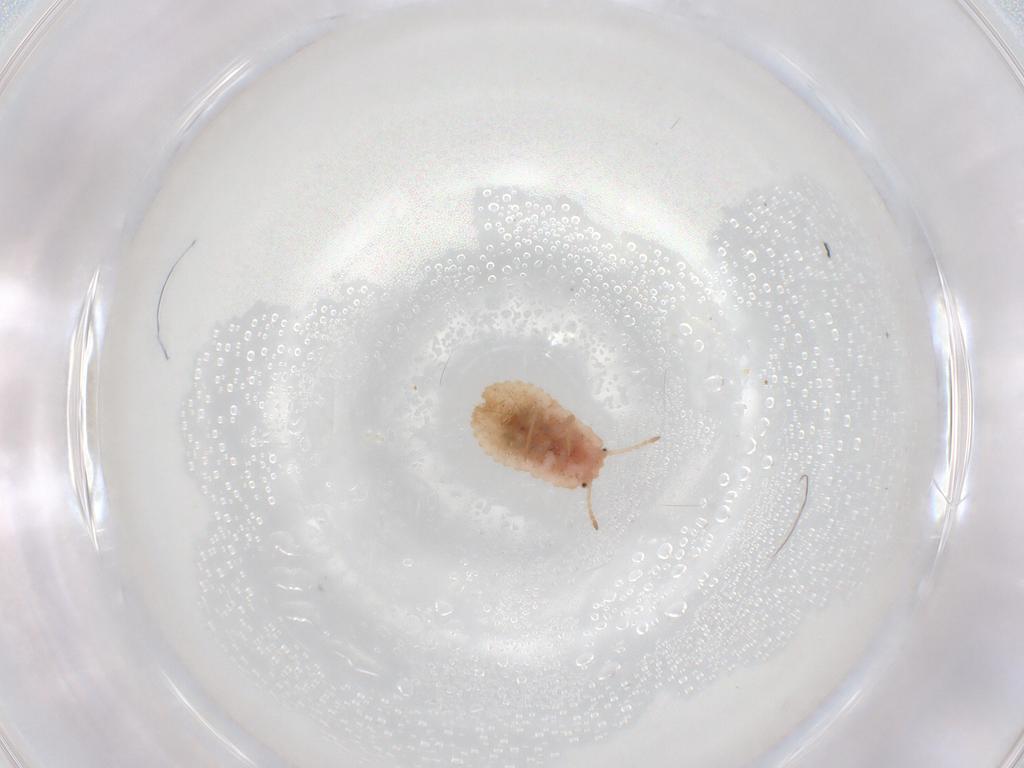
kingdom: Animalia
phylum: Arthropoda
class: Insecta
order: Hemiptera
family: Coccoidea_incertae_sedis
